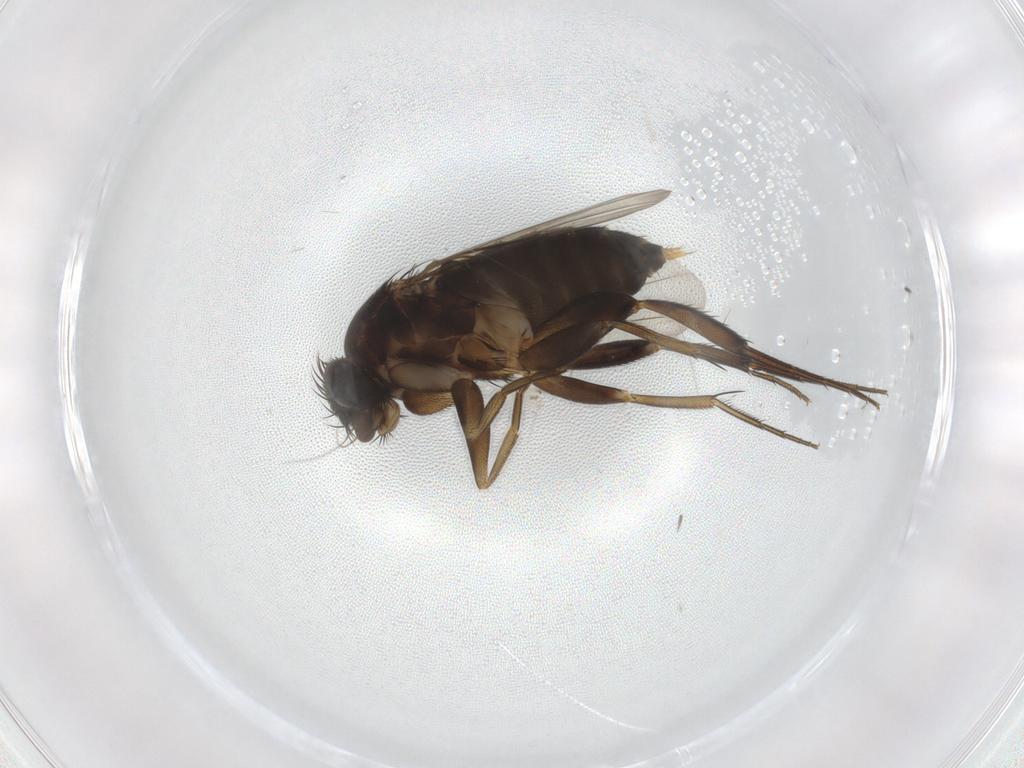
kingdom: Animalia
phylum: Arthropoda
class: Insecta
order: Diptera
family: Phoridae
